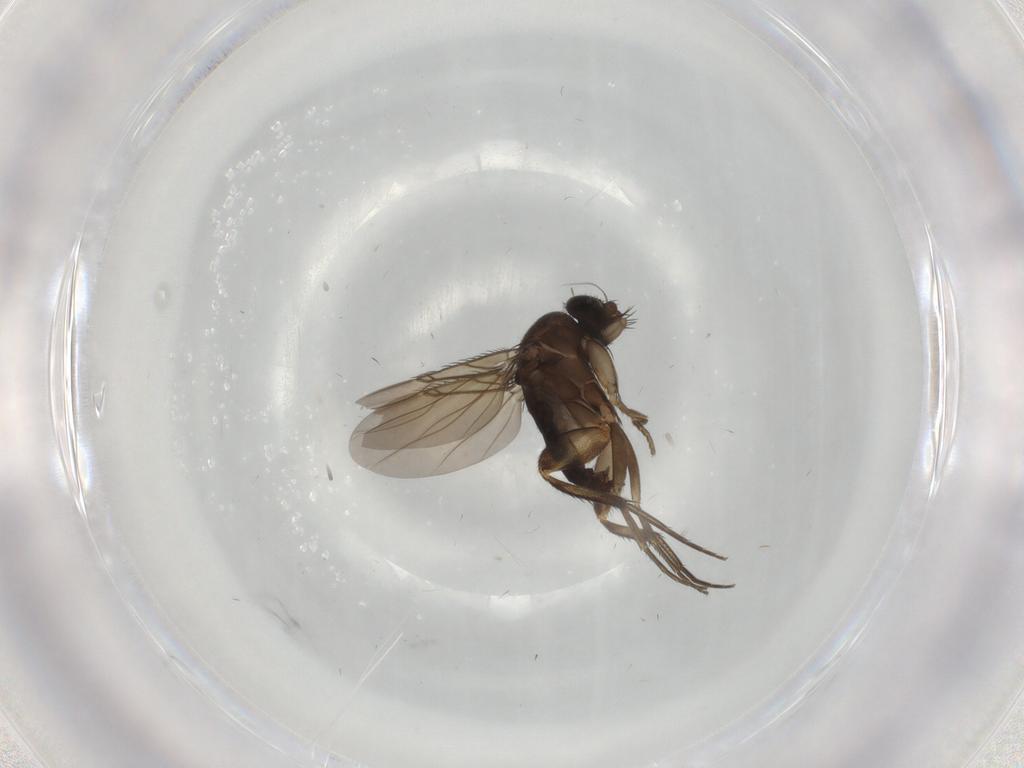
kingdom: Animalia
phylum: Arthropoda
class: Insecta
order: Diptera
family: Phoridae
